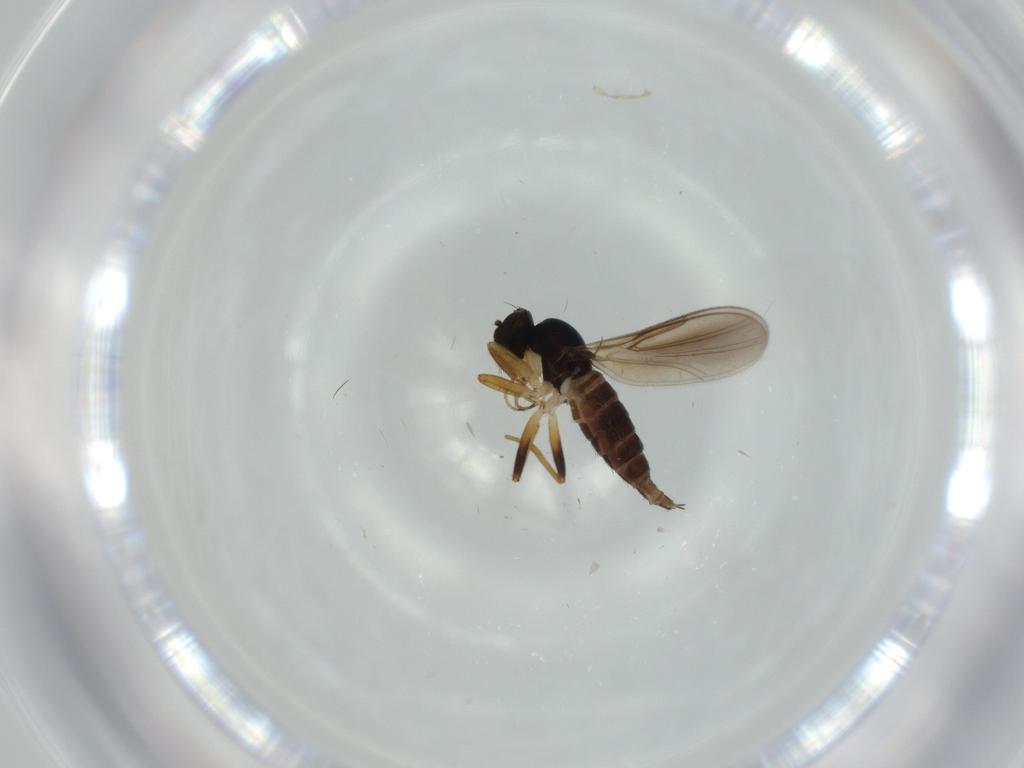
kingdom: Animalia
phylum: Arthropoda
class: Insecta
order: Diptera
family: Hybotidae
